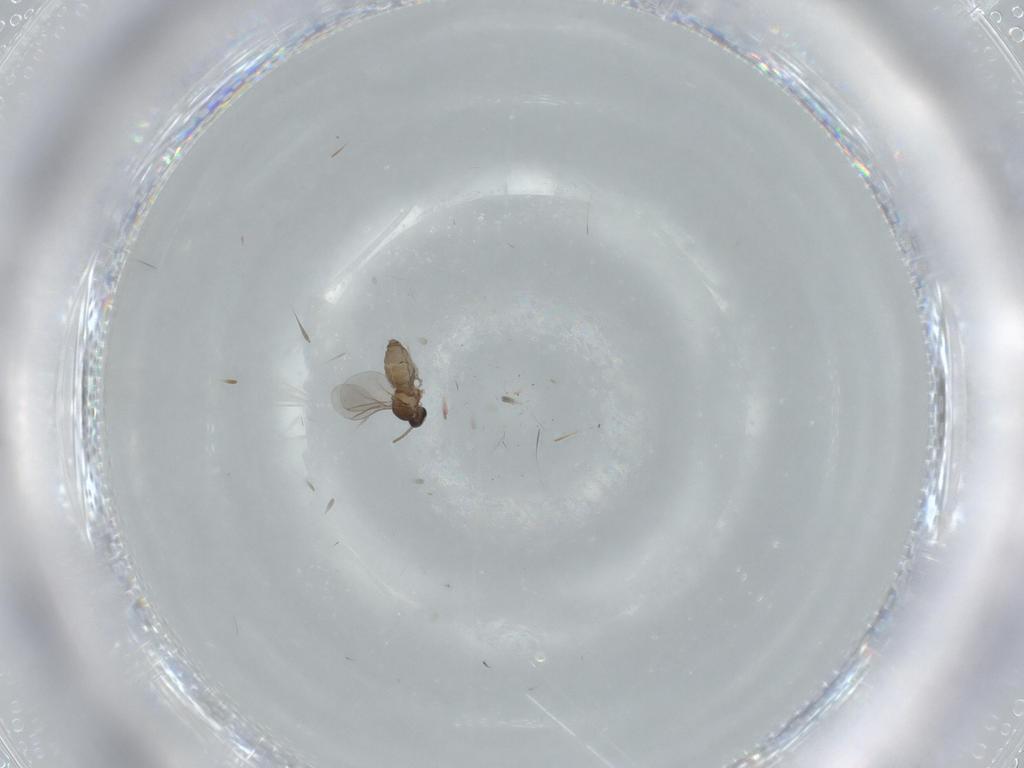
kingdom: Animalia
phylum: Arthropoda
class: Insecta
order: Diptera
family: Cecidomyiidae
